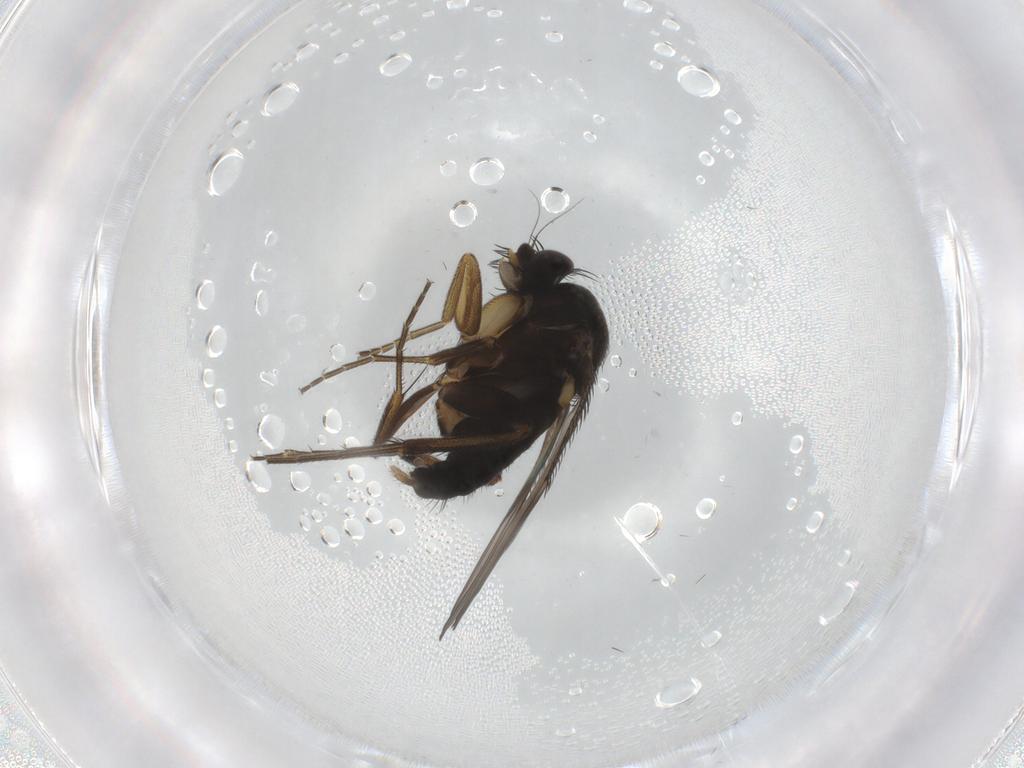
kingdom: Animalia
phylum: Arthropoda
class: Insecta
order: Diptera
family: Phoridae
